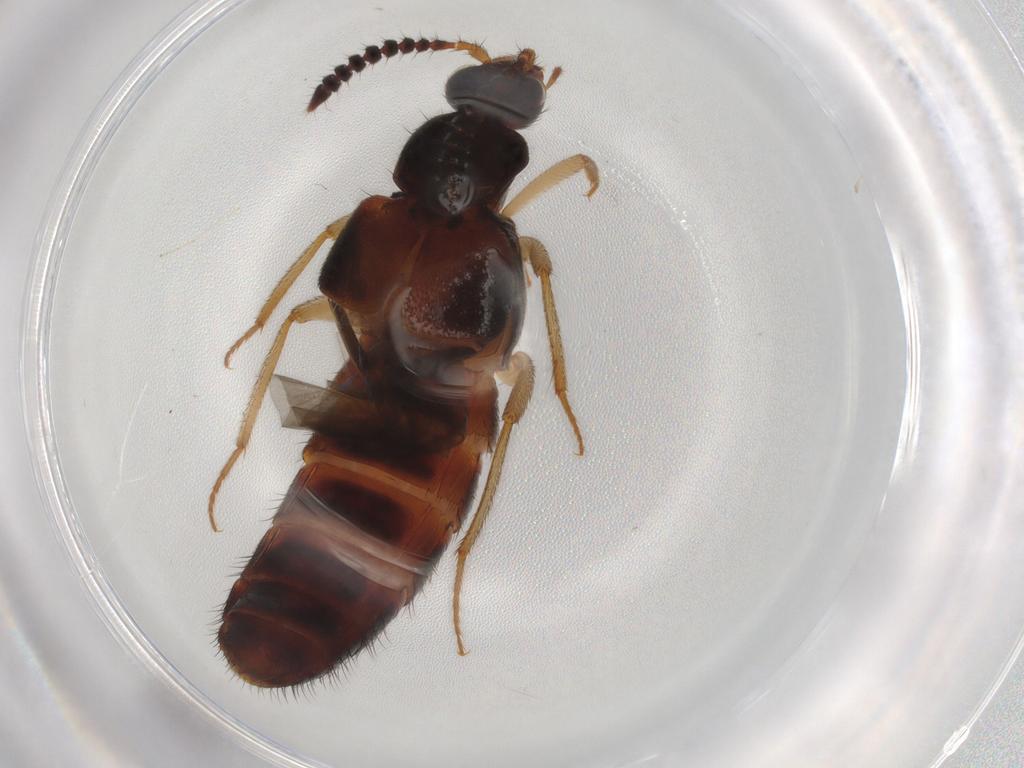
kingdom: Animalia
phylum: Arthropoda
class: Insecta
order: Coleoptera
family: Staphylinidae
